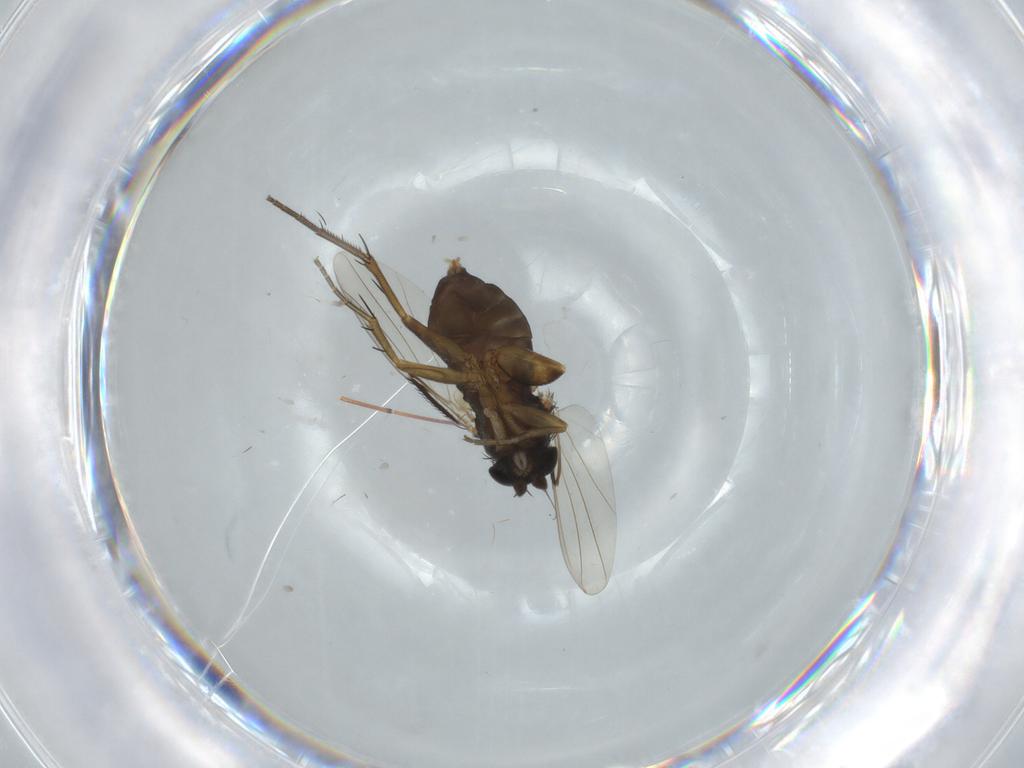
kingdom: Animalia
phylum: Arthropoda
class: Insecta
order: Diptera
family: Phoridae
